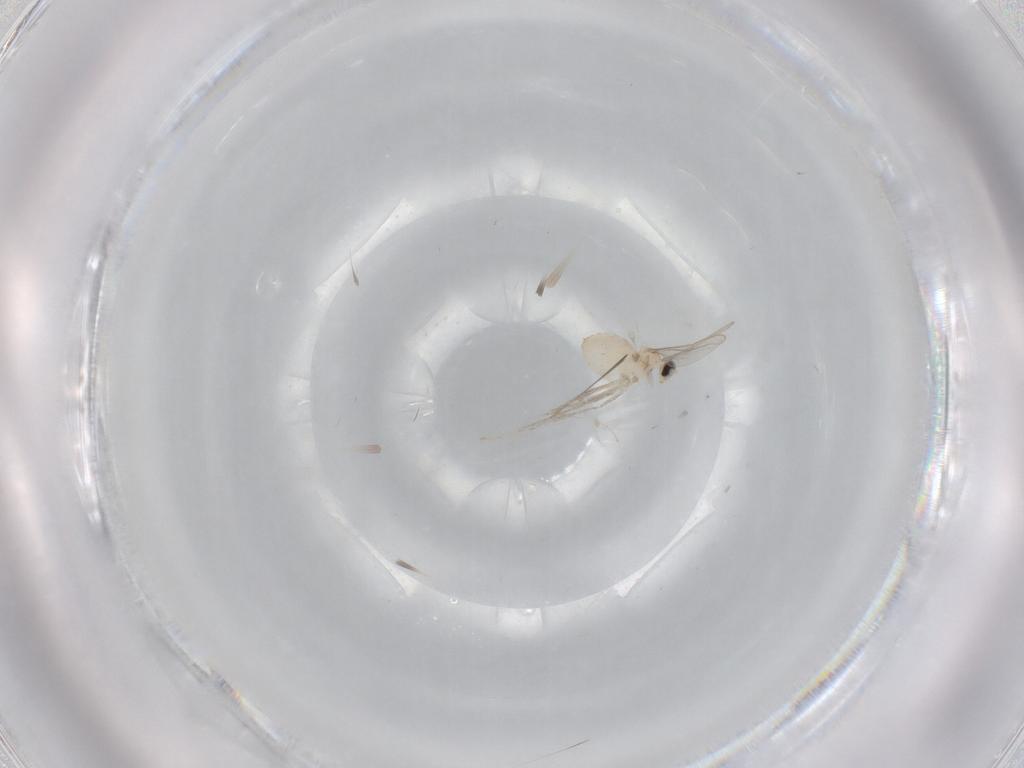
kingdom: Animalia
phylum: Arthropoda
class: Insecta
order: Diptera
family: Cecidomyiidae
